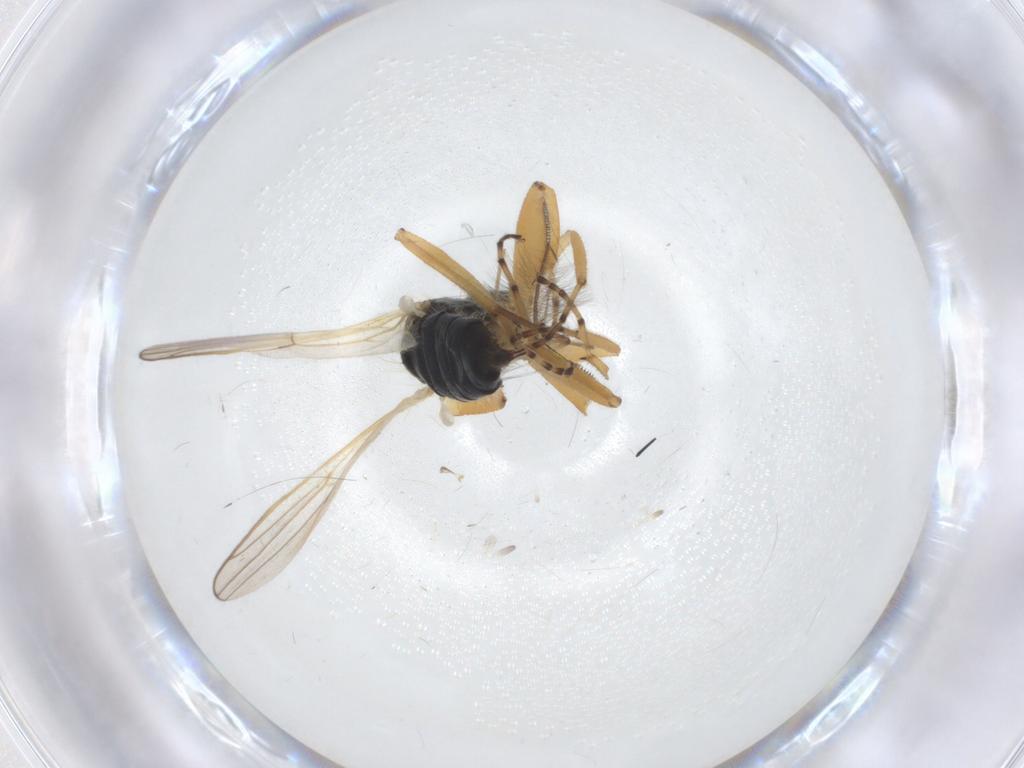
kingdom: Animalia
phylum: Arthropoda
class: Insecta
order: Diptera
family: Hybotidae
